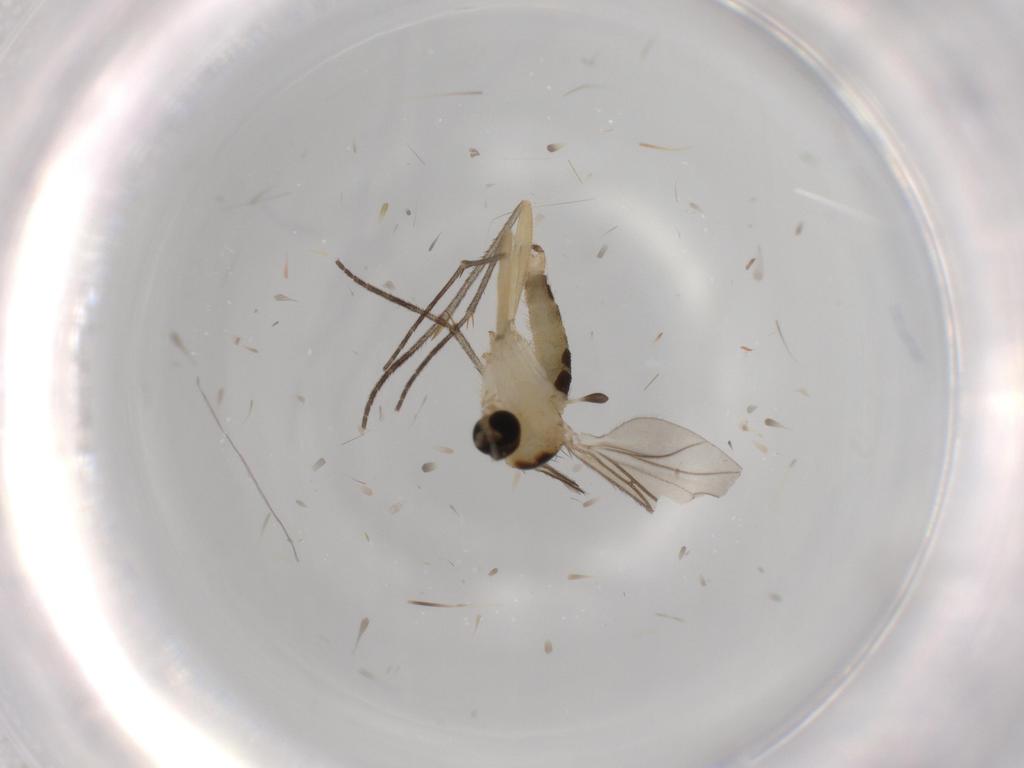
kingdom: Animalia
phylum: Arthropoda
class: Insecta
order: Diptera
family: Sciaridae
